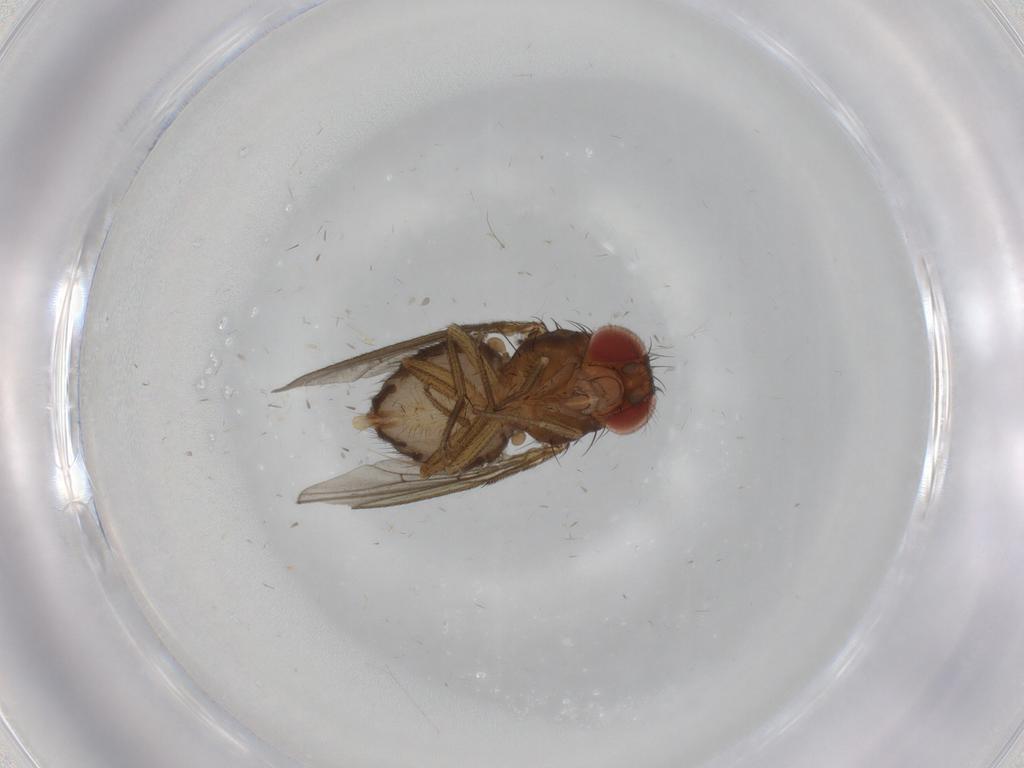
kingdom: Animalia
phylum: Arthropoda
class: Insecta
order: Diptera
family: Drosophilidae
